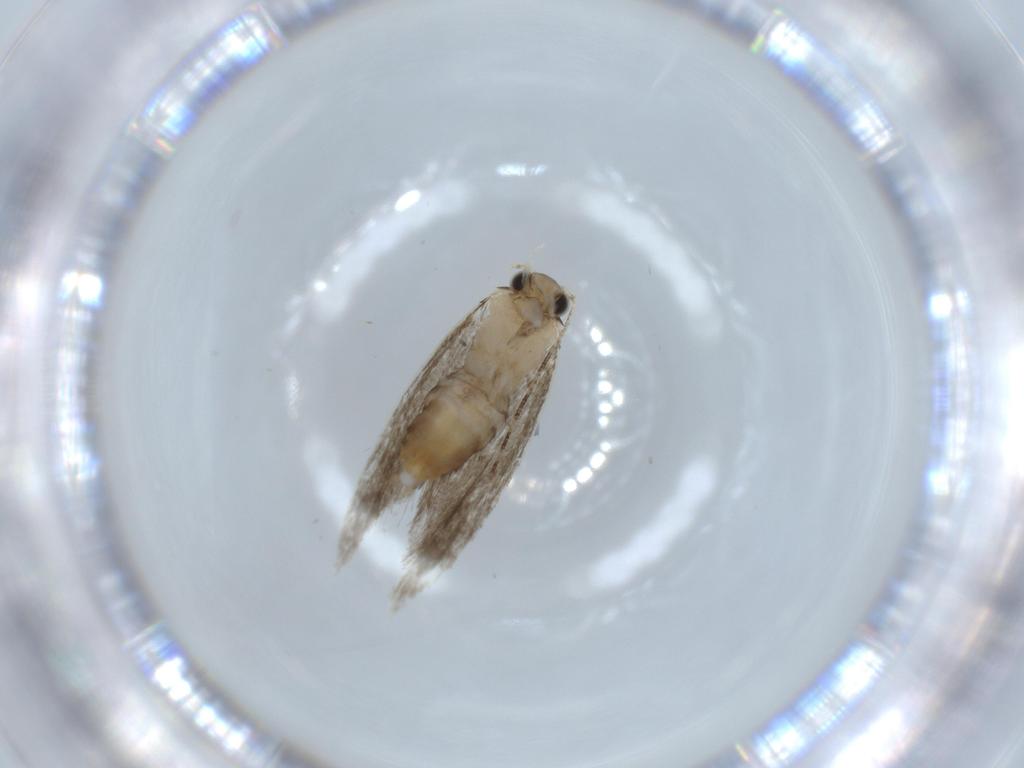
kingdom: Animalia
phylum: Arthropoda
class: Insecta
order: Lepidoptera
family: Tineidae
